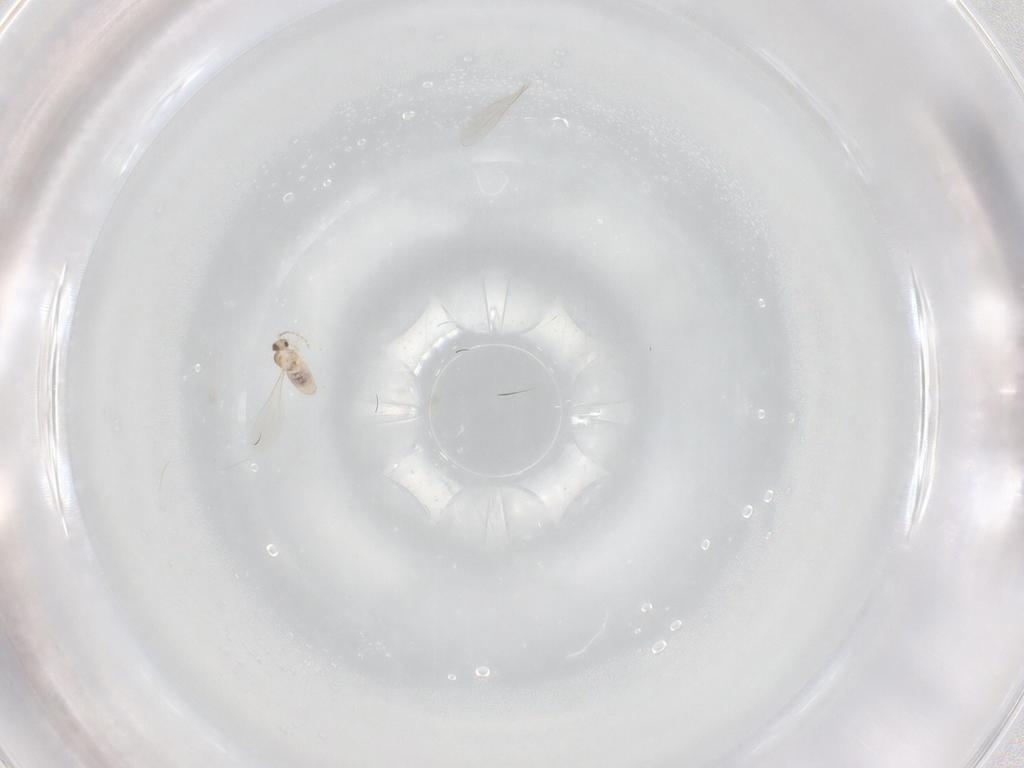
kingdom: Animalia
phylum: Arthropoda
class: Insecta
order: Diptera
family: Cecidomyiidae
